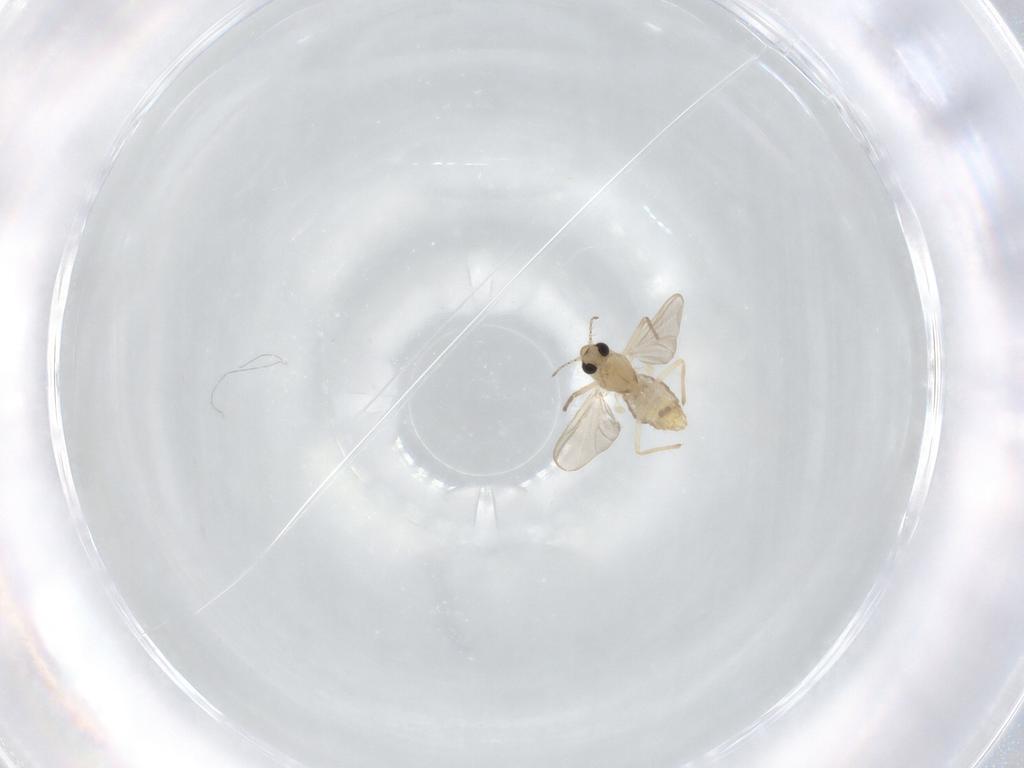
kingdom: Animalia
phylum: Arthropoda
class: Insecta
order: Diptera
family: Chironomidae
